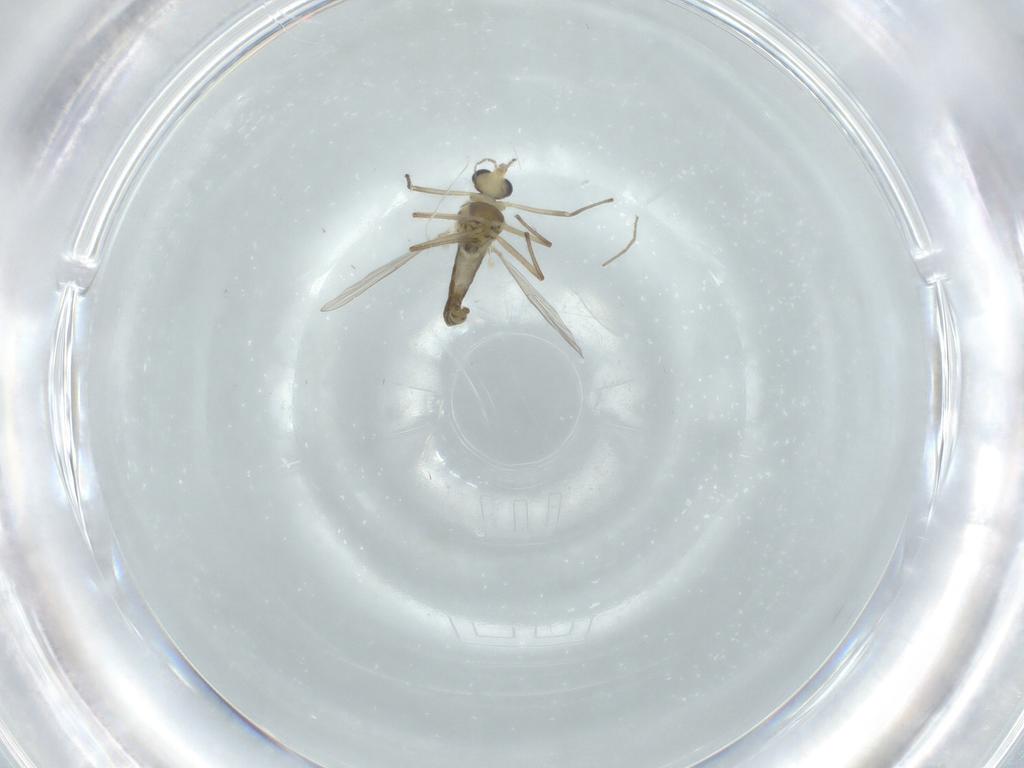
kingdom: Animalia
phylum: Arthropoda
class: Insecta
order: Diptera
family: Chironomidae
